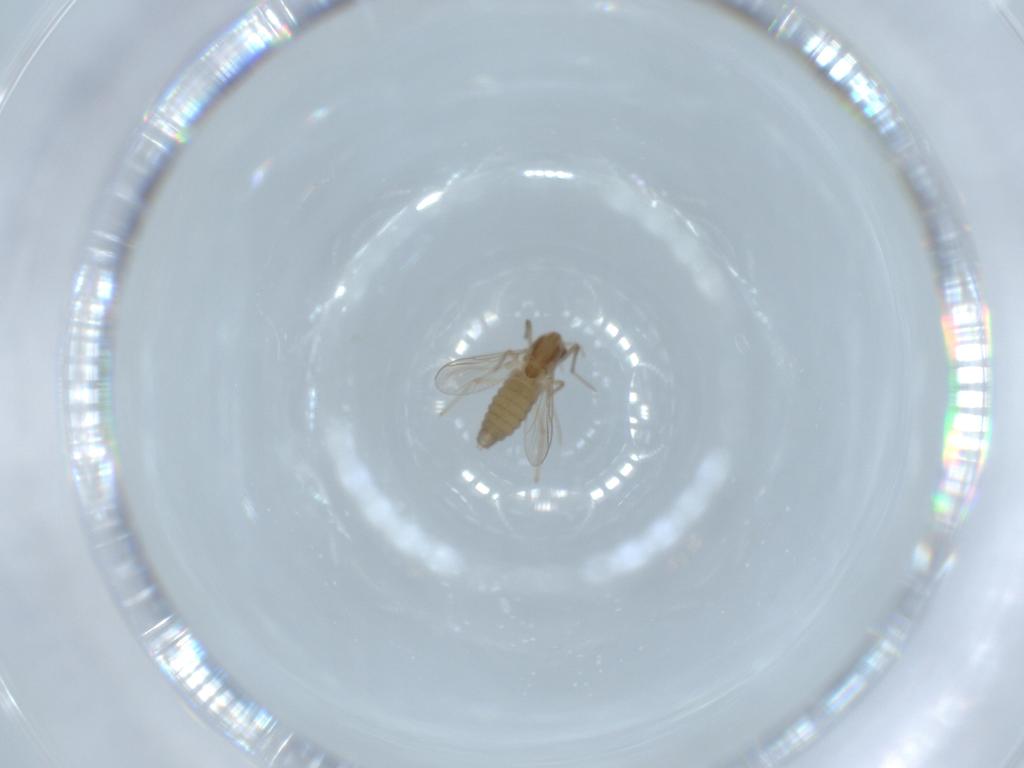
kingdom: Animalia
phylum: Arthropoda
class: Insecta
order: Diptera
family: Chironomidae
